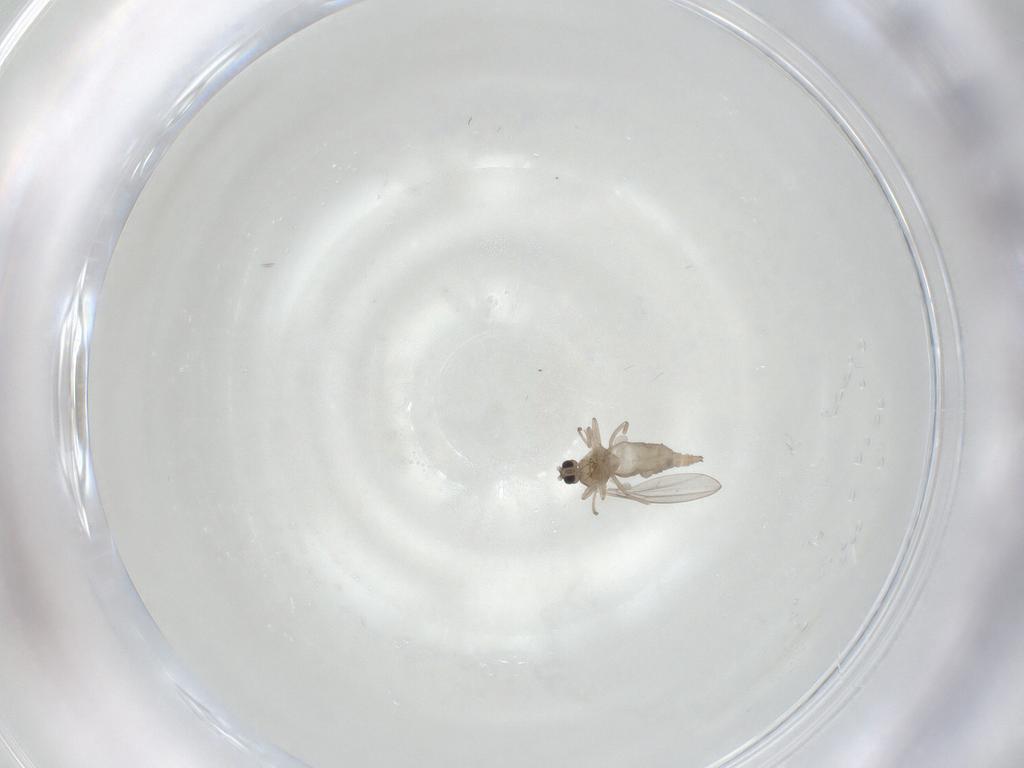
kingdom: Animalia
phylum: Arthropoda
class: Insecta
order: Diptera
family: Cecidomyiidae
